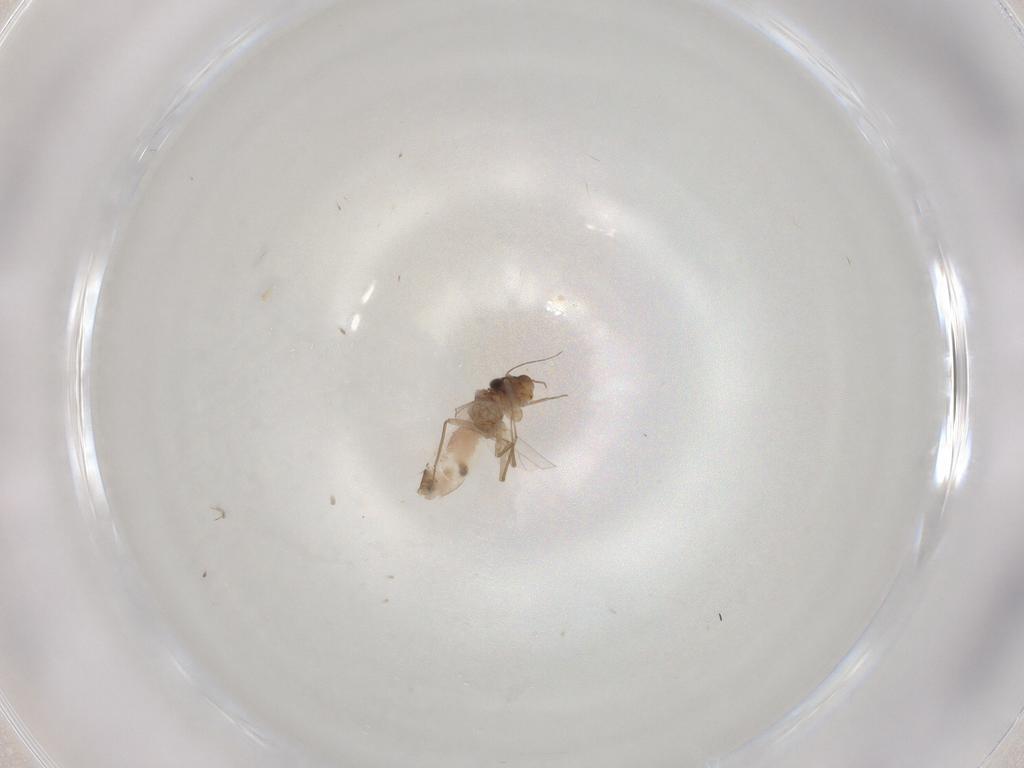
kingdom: Animalia
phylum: Arthropoda
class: Insecta
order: Psocodea
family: Lepidopsocidae
